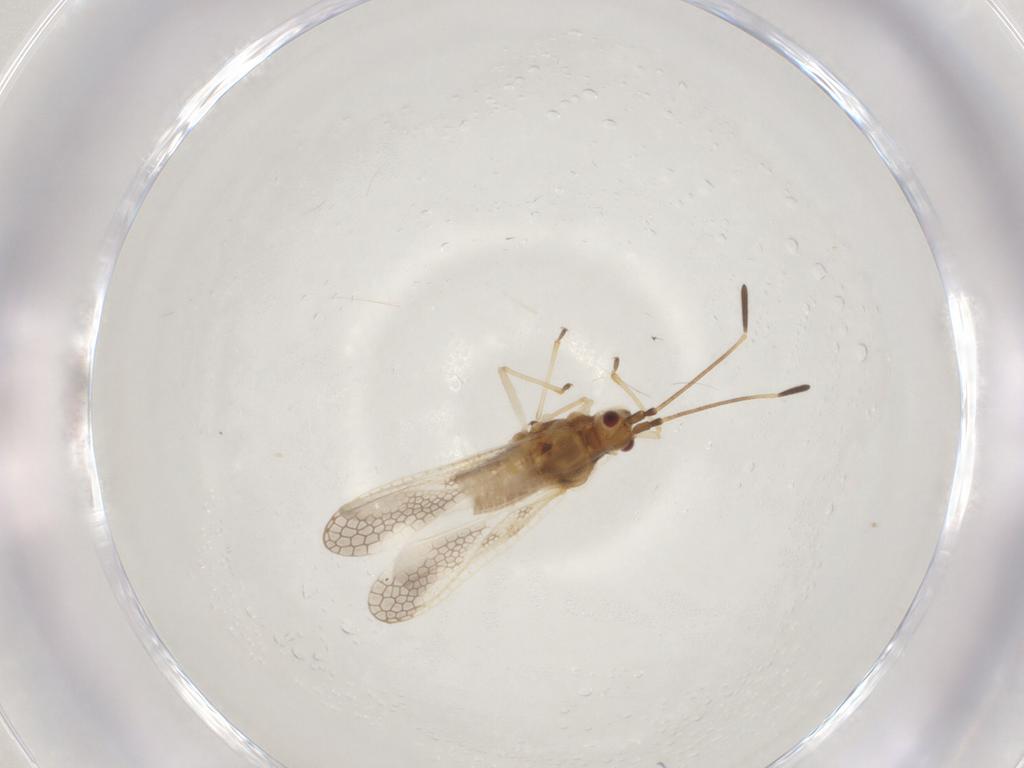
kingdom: Animalia
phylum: Arthropoda
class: Insecta
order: Hemiptera
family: Tingidae
